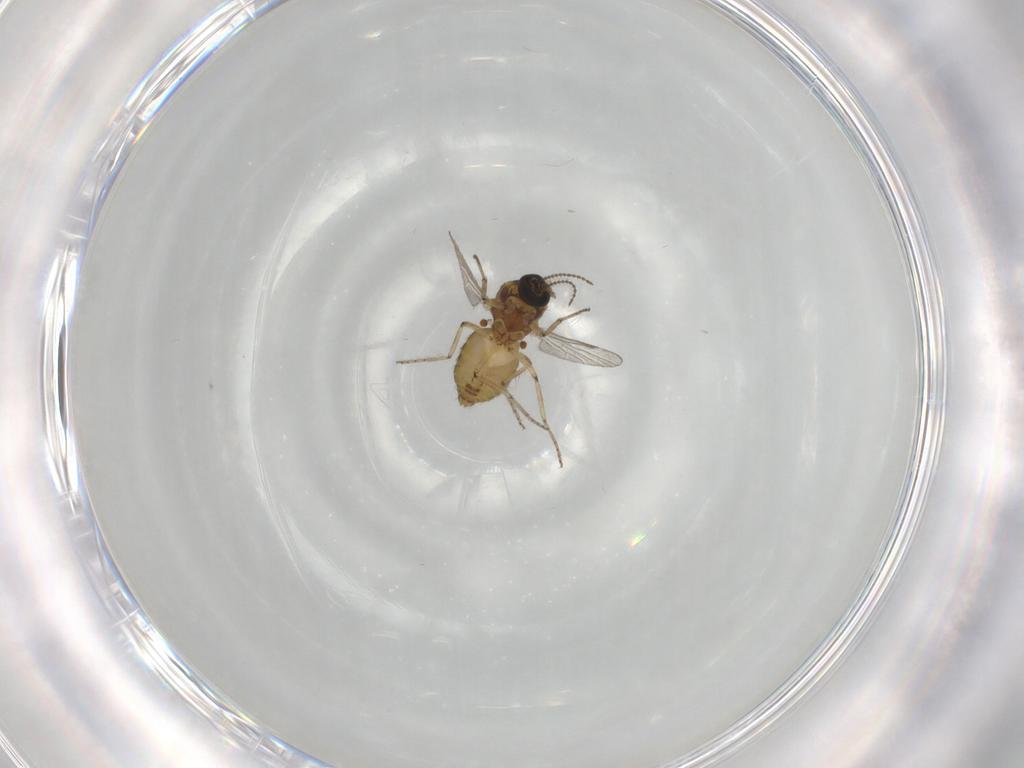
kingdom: Animalia
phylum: Arthropoda
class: Insecta
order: Diptera
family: Ceratopogonidae
